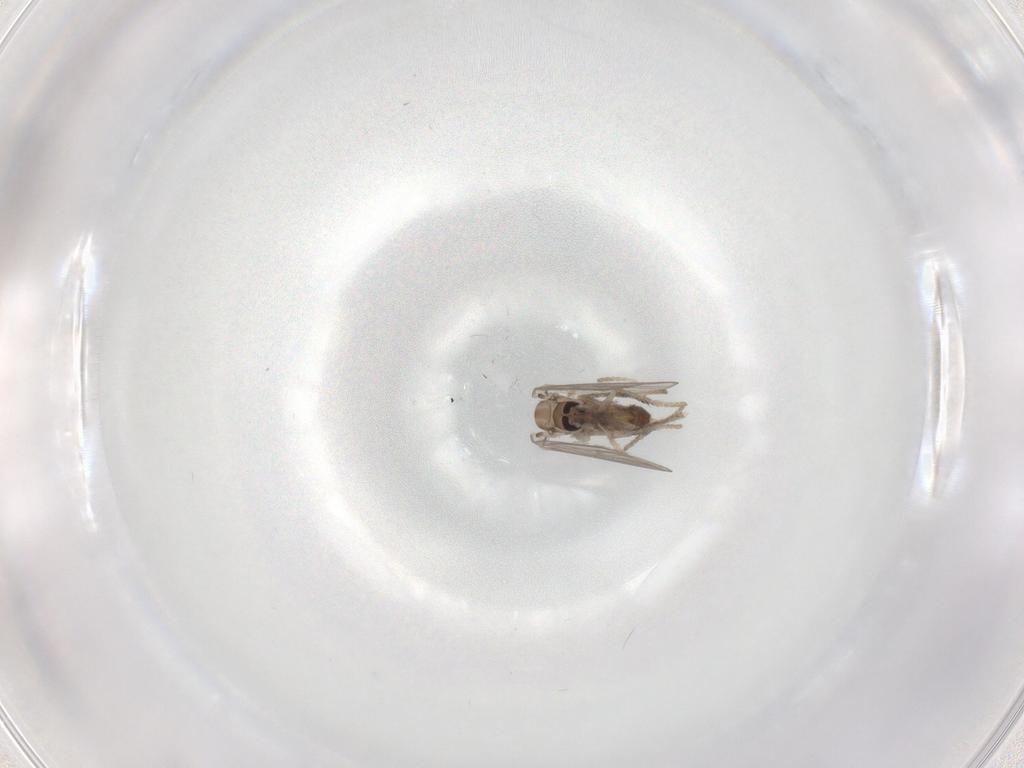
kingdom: Animalia
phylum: Arthropoda
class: Insecta
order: Diptera
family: Psychodidae
